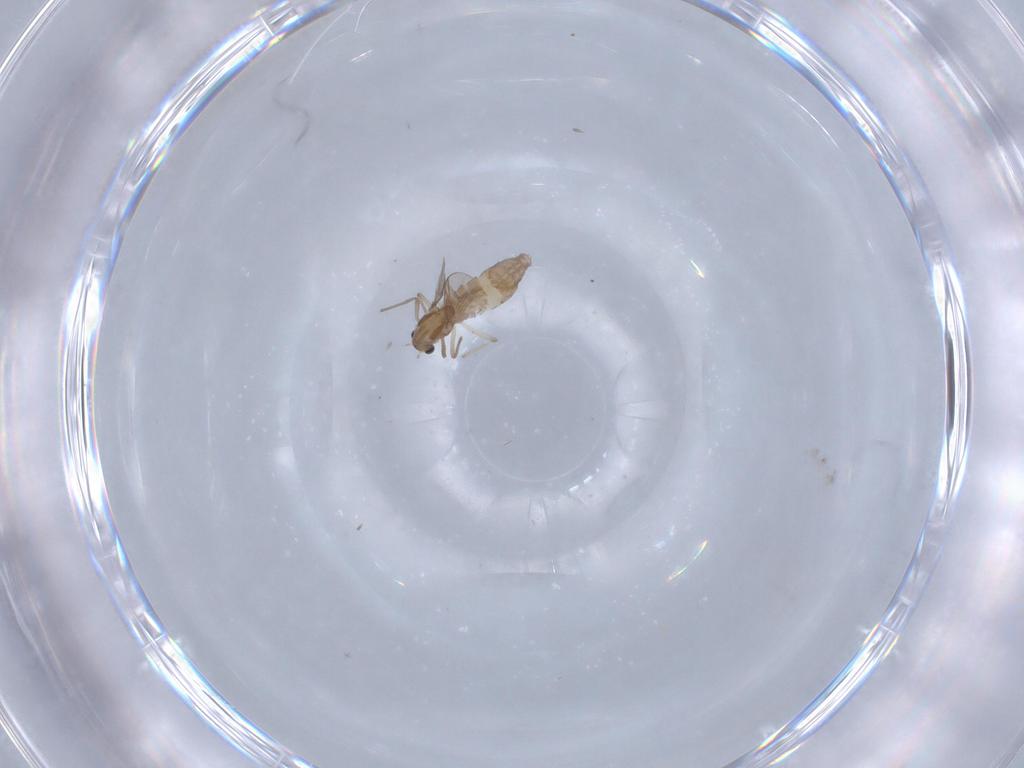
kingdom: Animalia
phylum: Arthropoda
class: Insecta
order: Diptera
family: Chironomidae
